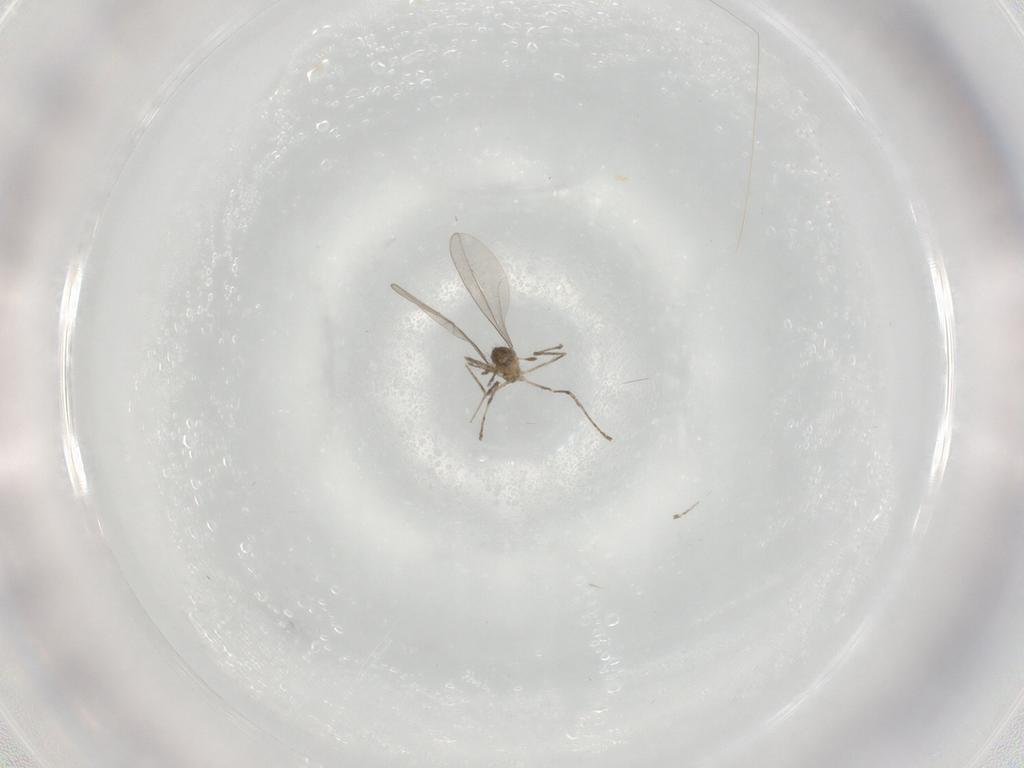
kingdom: Animalia
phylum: Arthropoda
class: Insecta
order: Diptera
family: Cecidomyiidae
